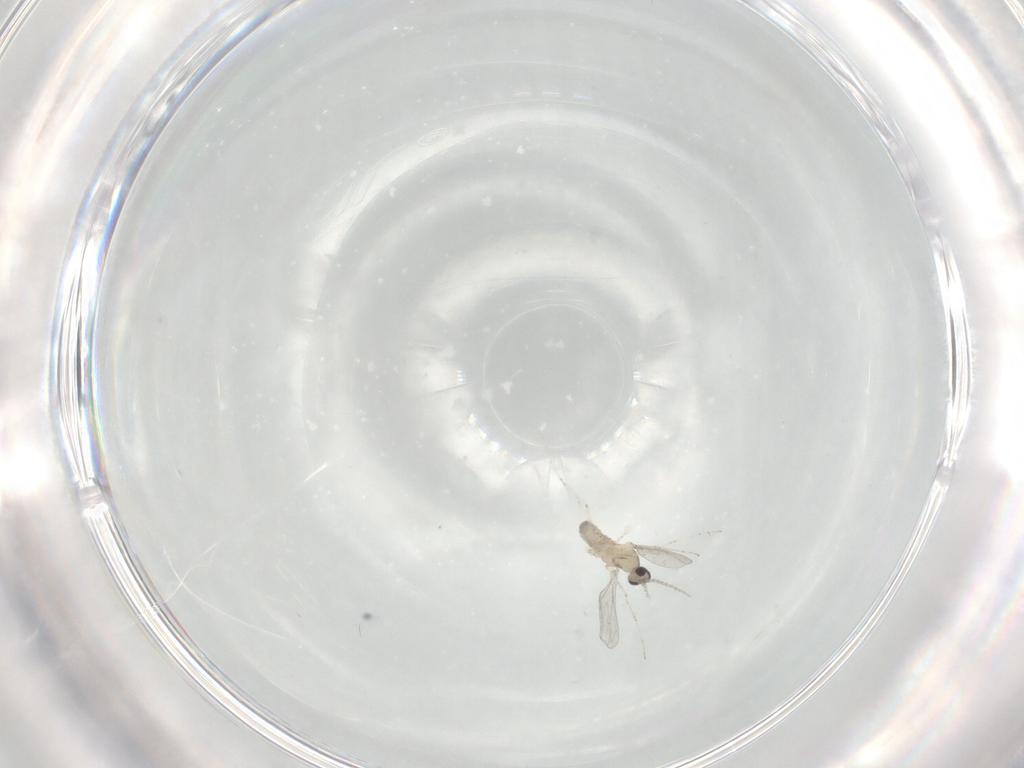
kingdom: Animalia
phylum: Arthropoda
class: Insecta
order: Diptera
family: Cecidomyiidae
